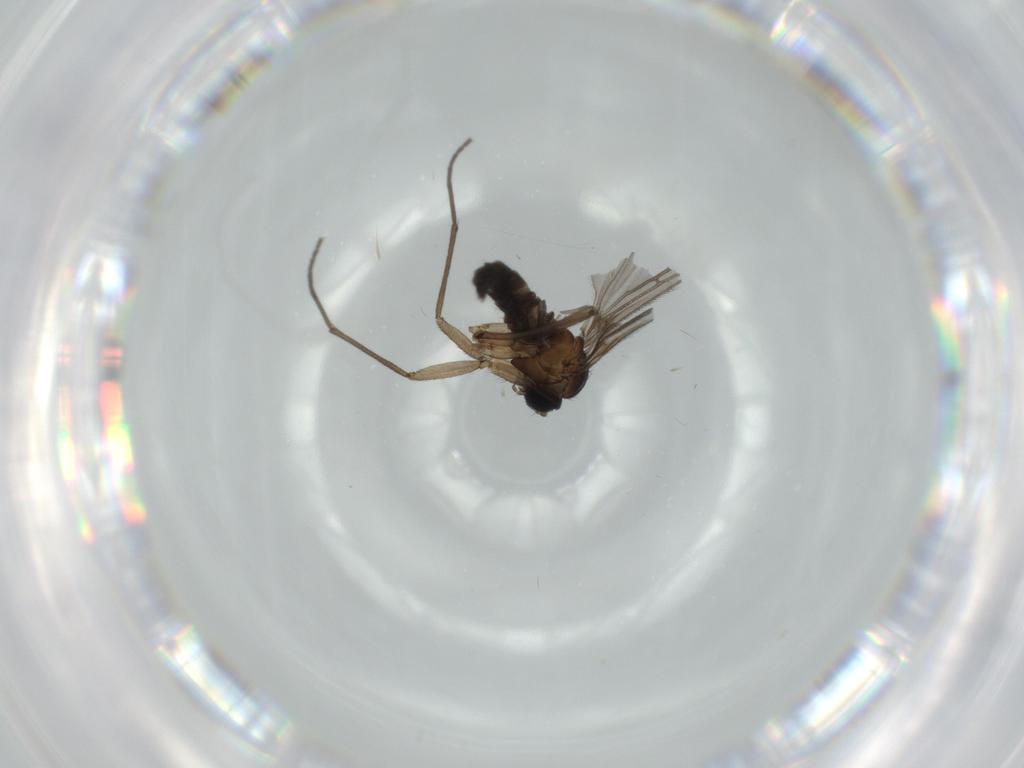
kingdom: Animalia
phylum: Arthropoda
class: Insecta
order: Diptera
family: Sciaridae
